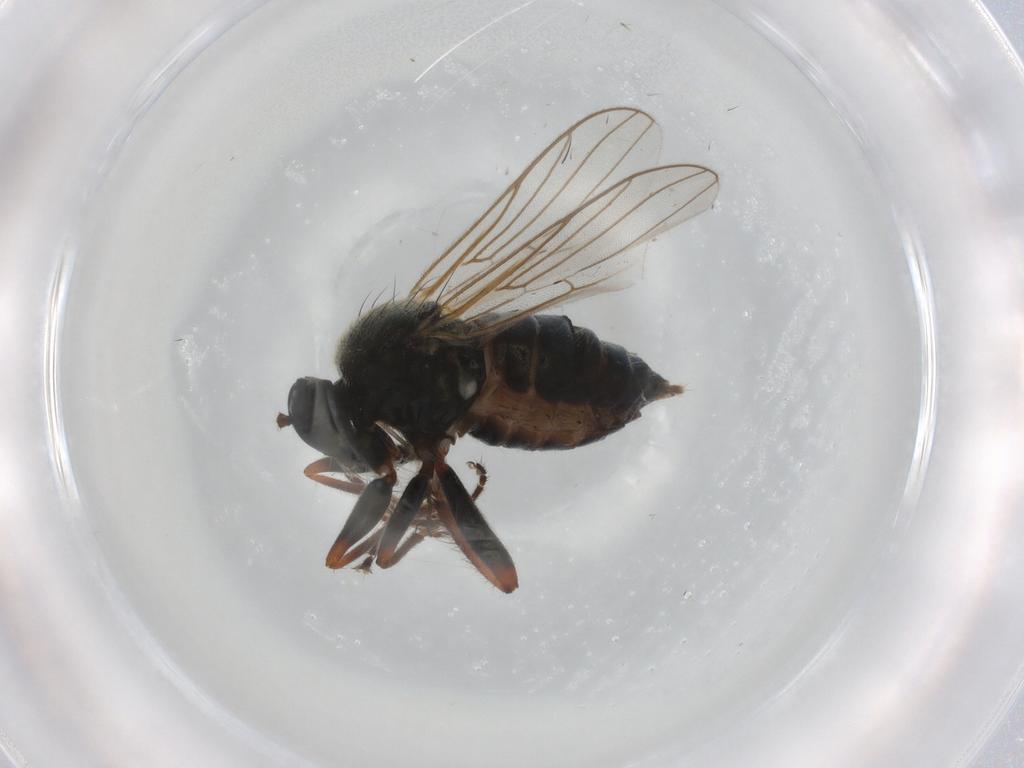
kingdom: Animalia
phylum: Arthropoda
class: Insecta
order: Diptera
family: Hybotidae
